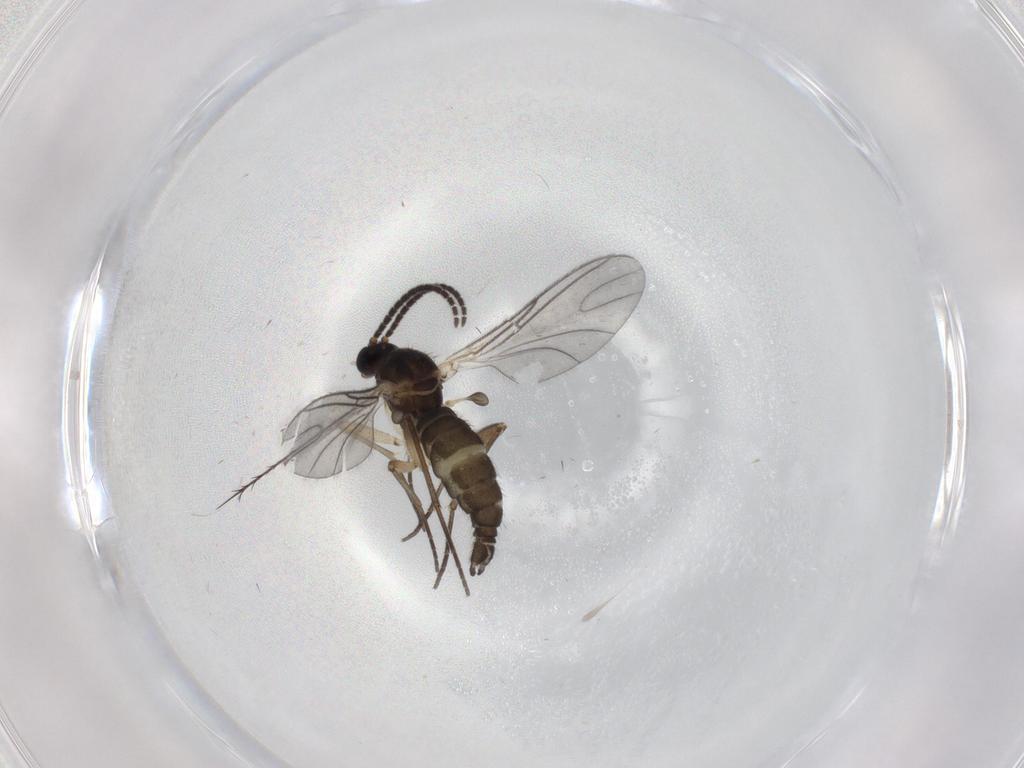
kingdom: Animalia
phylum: Arthropoda
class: Insecta
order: Diptera
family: Sciaridae
